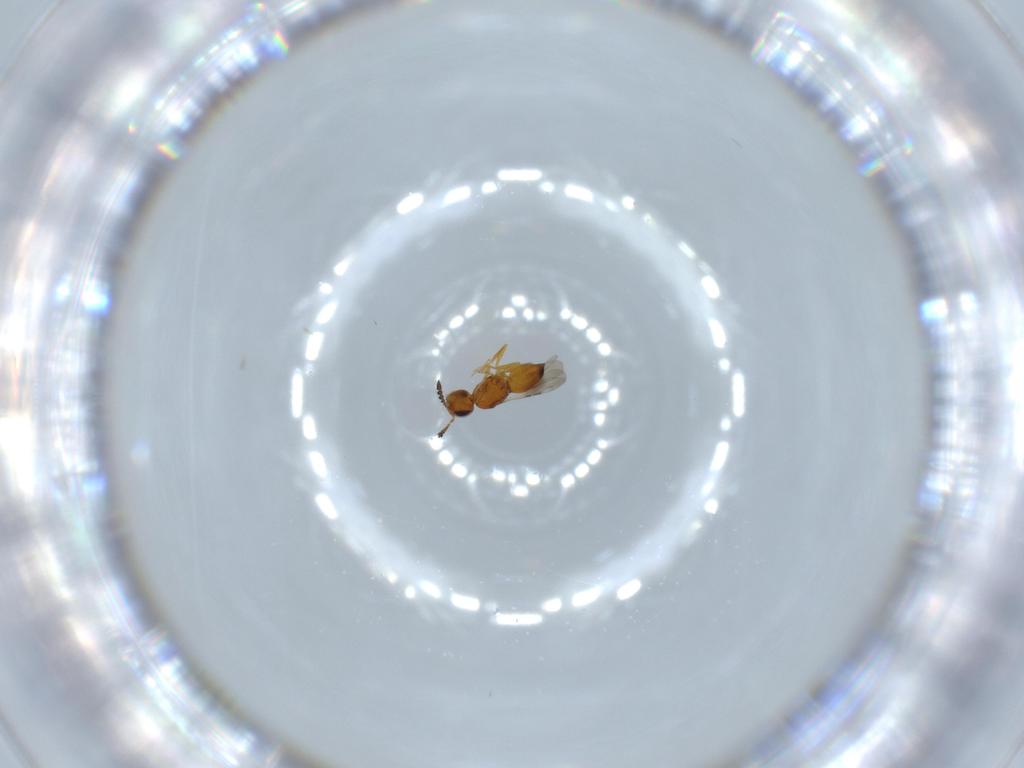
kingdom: Animalia
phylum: Arthropoda
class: Insecta
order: Hymenoptera
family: Ceraphronidae
